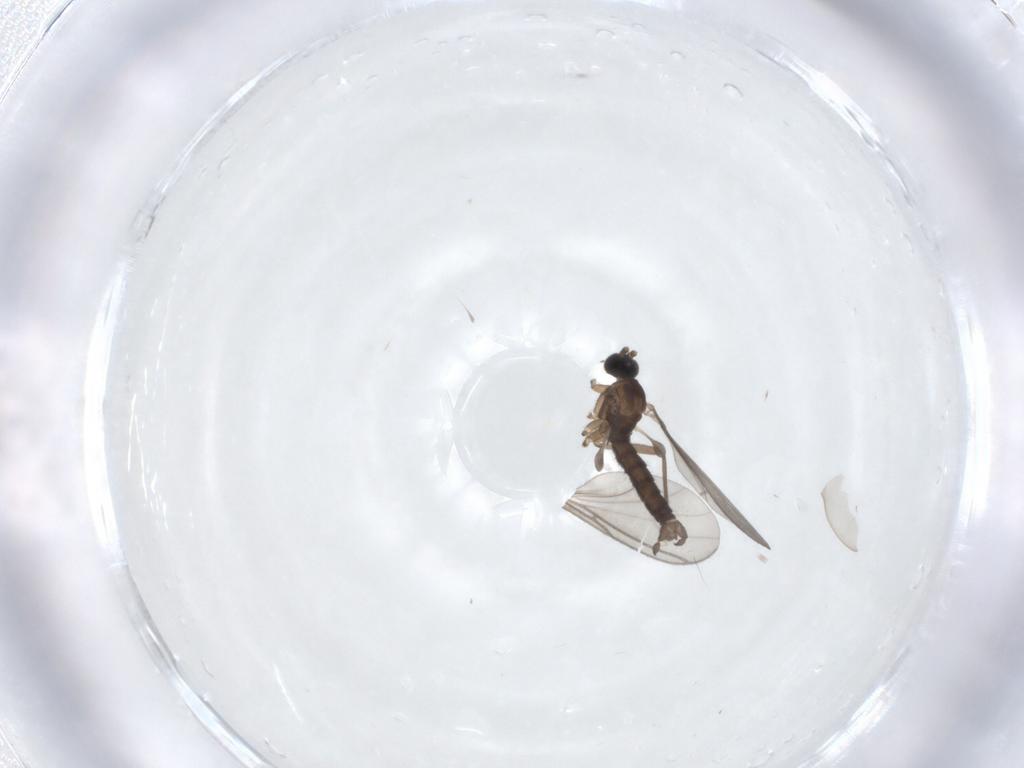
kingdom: Animalia
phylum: Arthropoda
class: Insecta
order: Diptera
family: Sciaridae
